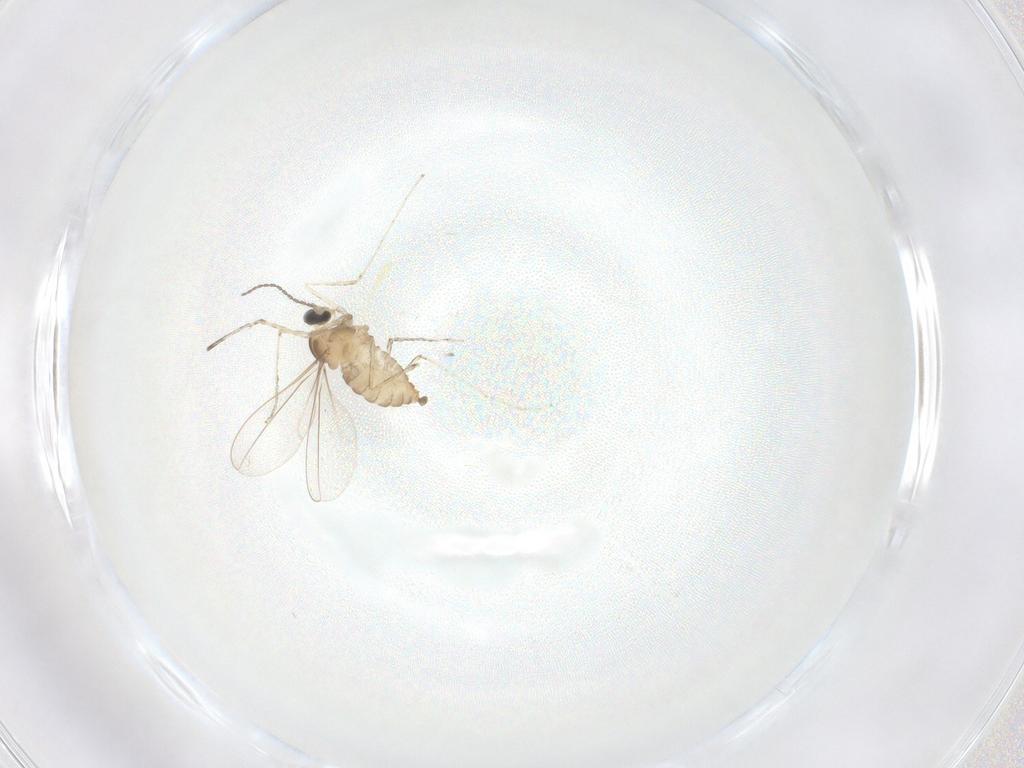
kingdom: Animalia
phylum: Arthropoda
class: Insecta
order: Diptera
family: Cecidomyiidae
